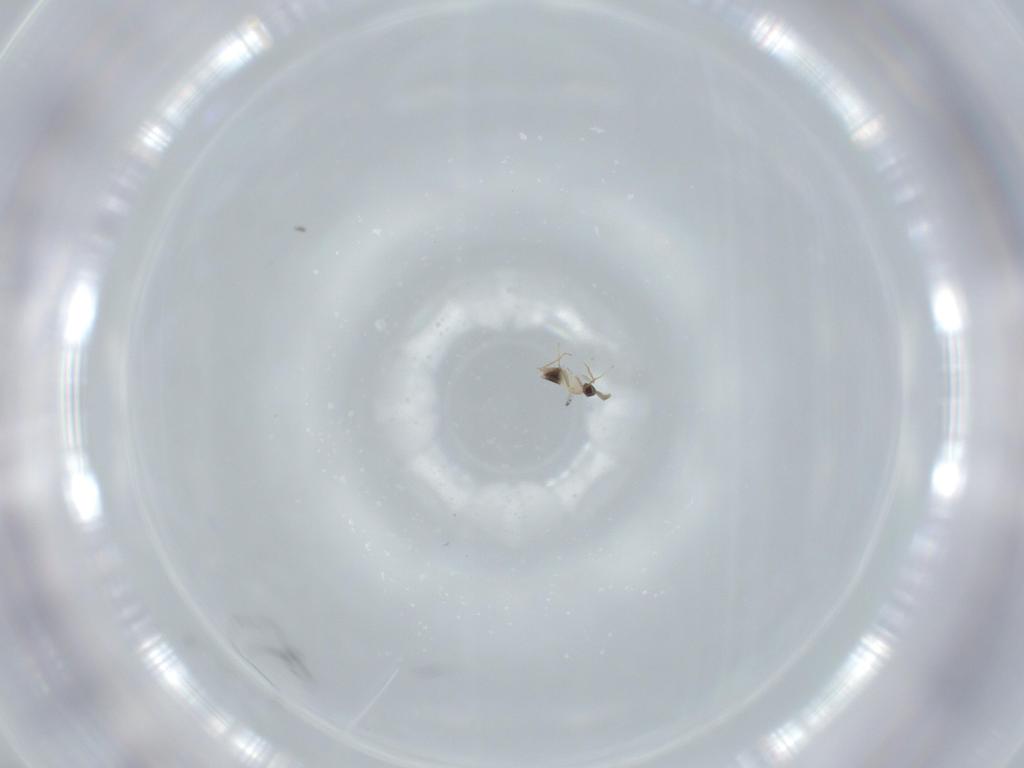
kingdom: Animalia
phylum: Arthropoda
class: Insecta
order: Hymenoptera
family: Mymaridae
